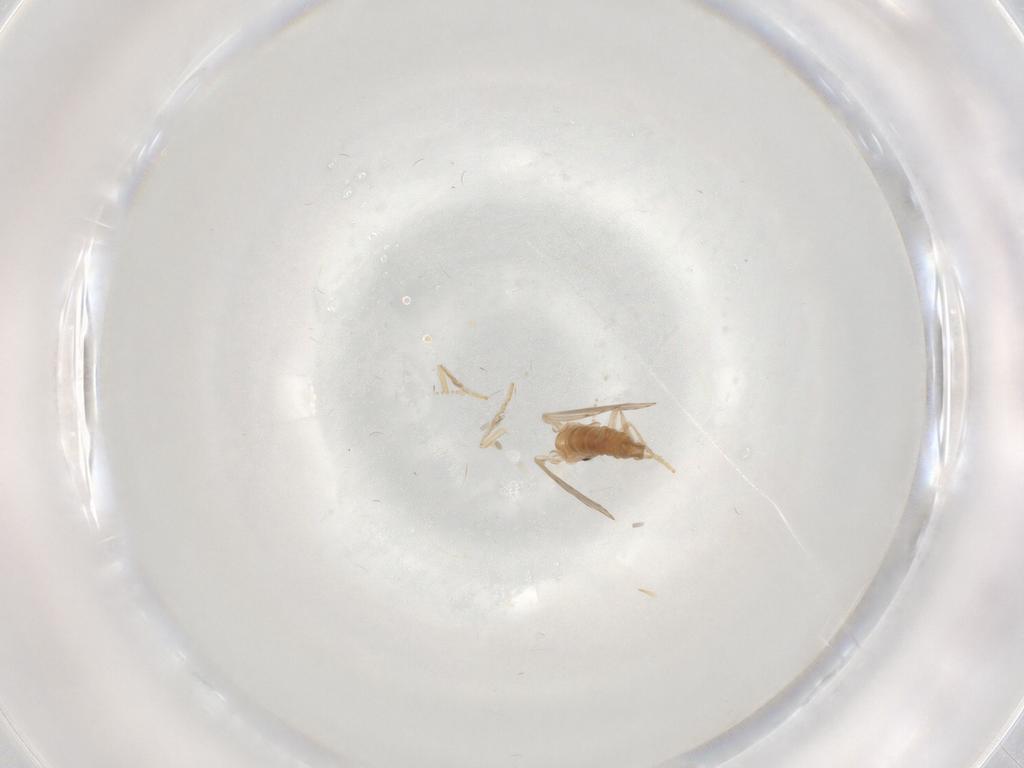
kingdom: Animalia
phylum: Arthropoda
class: Insecta
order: Diptera
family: Psychodidae
